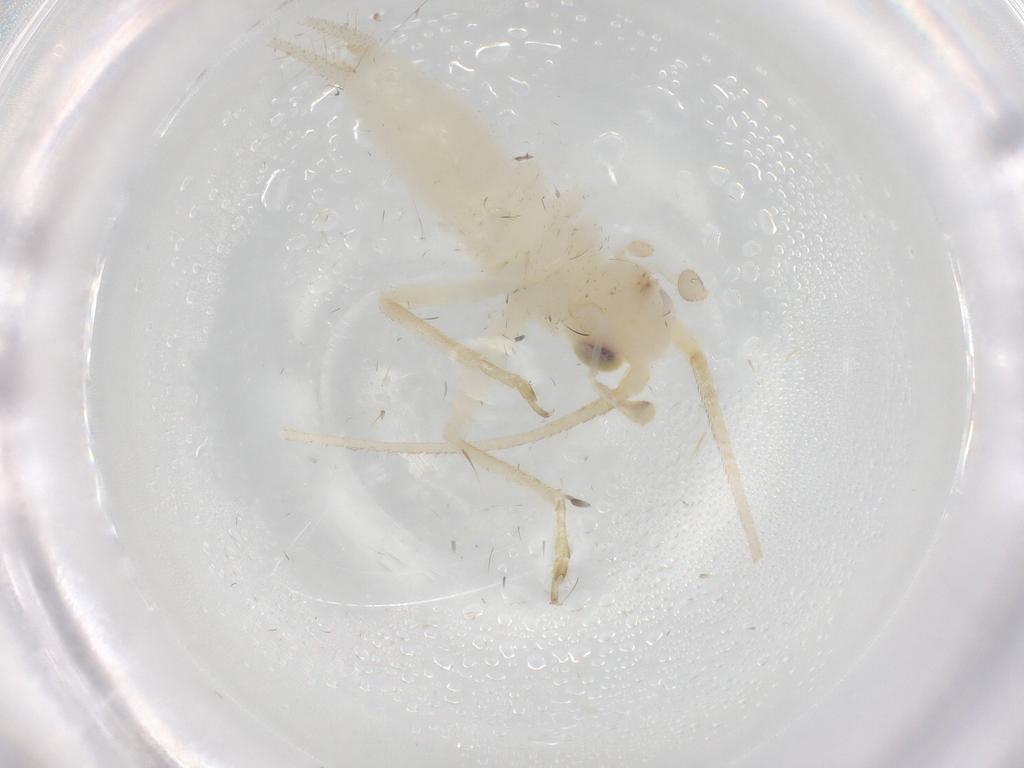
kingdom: Animalia
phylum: Arthropoda
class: Insecta
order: Orthoptera
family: Trigonidiidae
